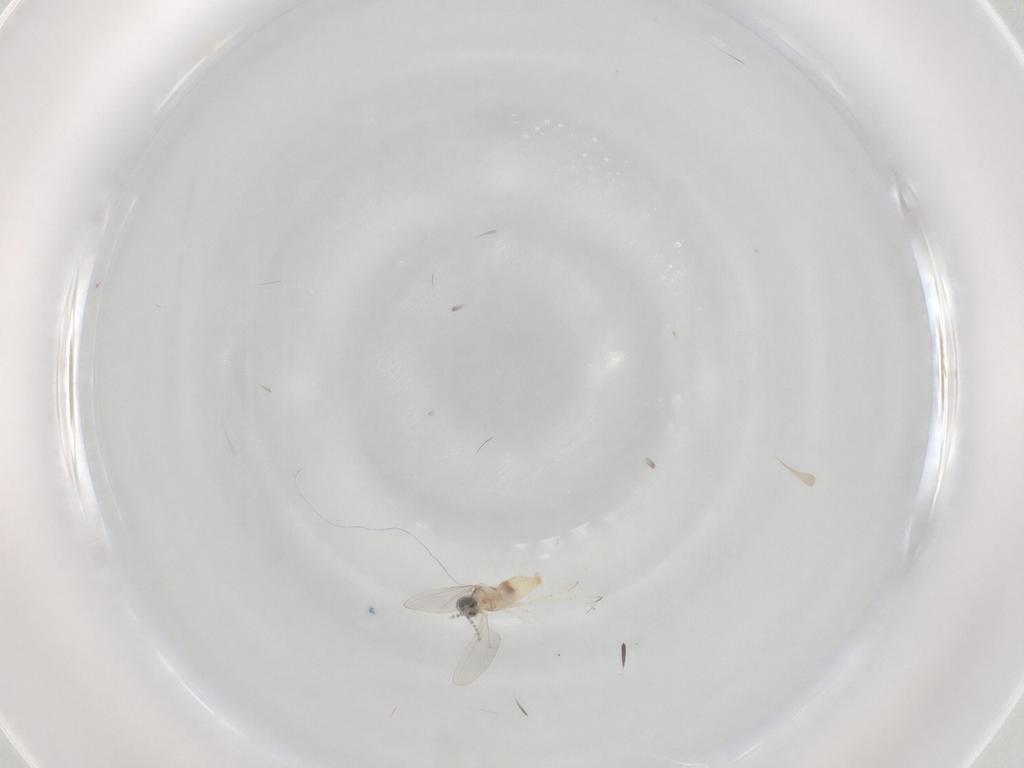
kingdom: Animalia
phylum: Arthropoda
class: Insecta
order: Diptera
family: Cecidomyiidae
